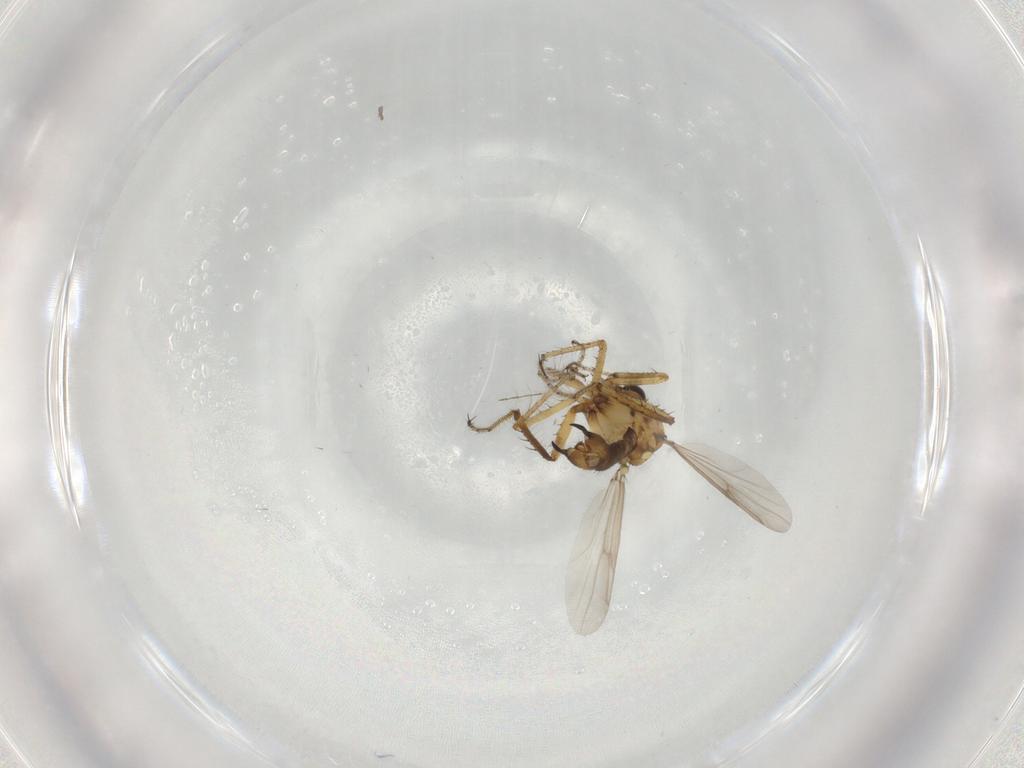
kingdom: Animalia
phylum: Arthropoda
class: Insecta
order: Diptera
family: Ceratopogonidae
